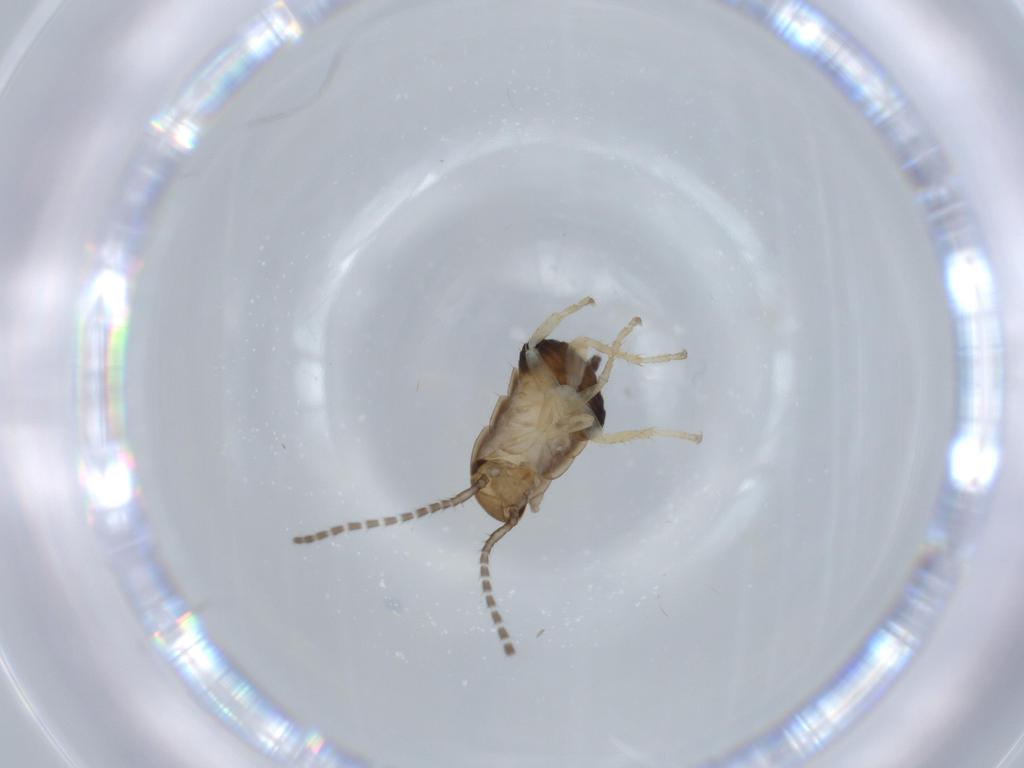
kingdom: Animalia
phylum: Arthropoda
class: Insecta
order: Blattodea
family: Ectobiidae
